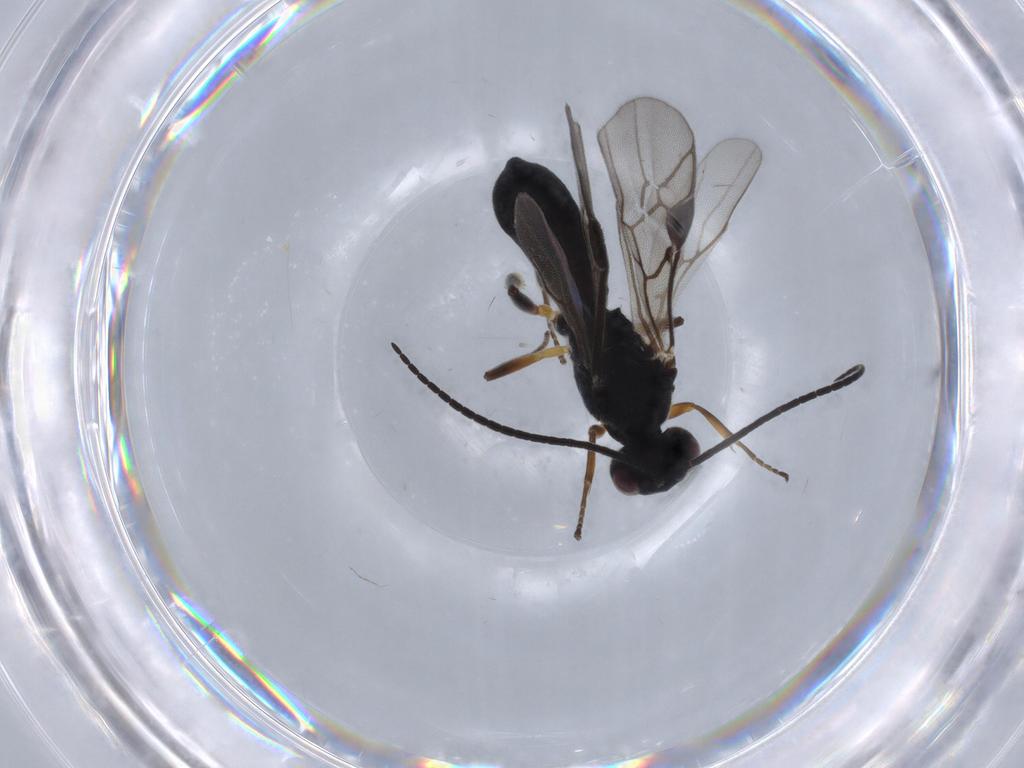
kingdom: Animalia
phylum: Arthropoda
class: Insecta
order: Hymenoptera
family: Braconidae
